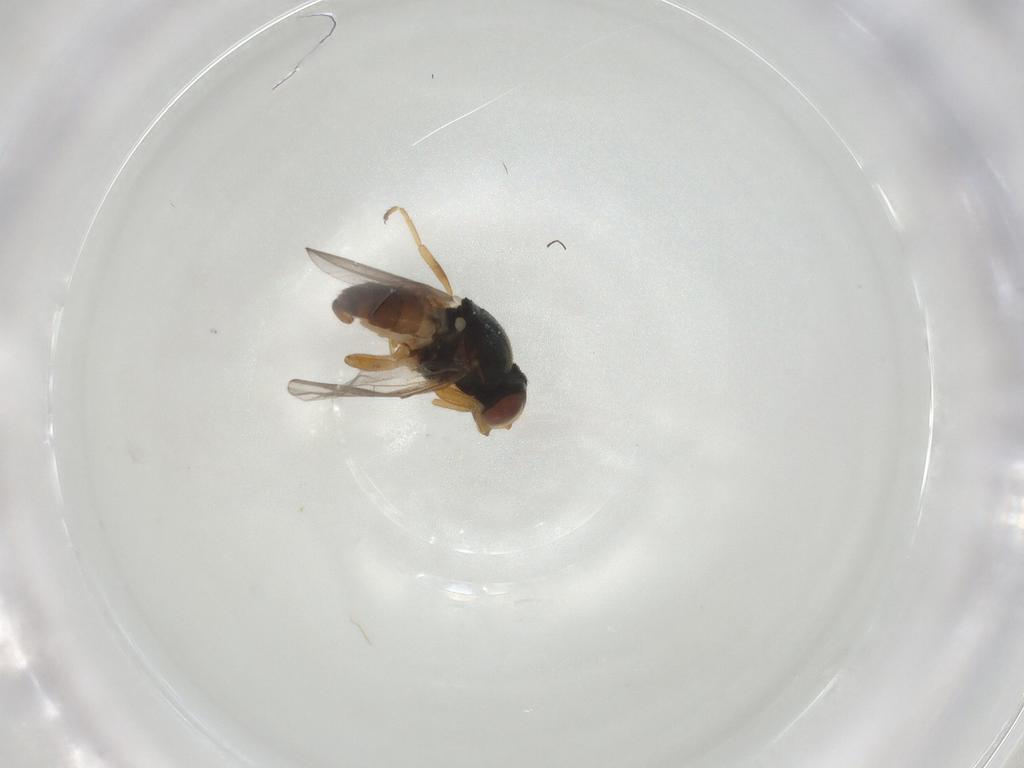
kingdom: Animalia
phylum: Arthropoda
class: Insecta
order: Diptera
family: Chloropidae
